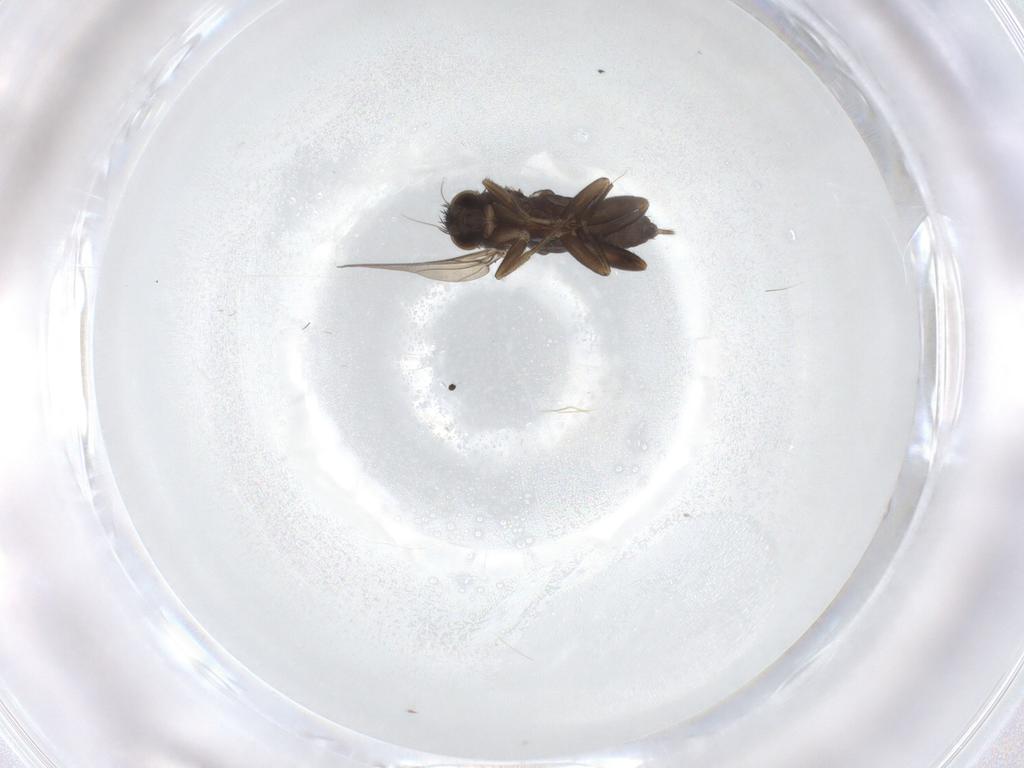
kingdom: Animalia
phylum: Arthropoda
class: Insecta
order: Diptera
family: Phoridae
